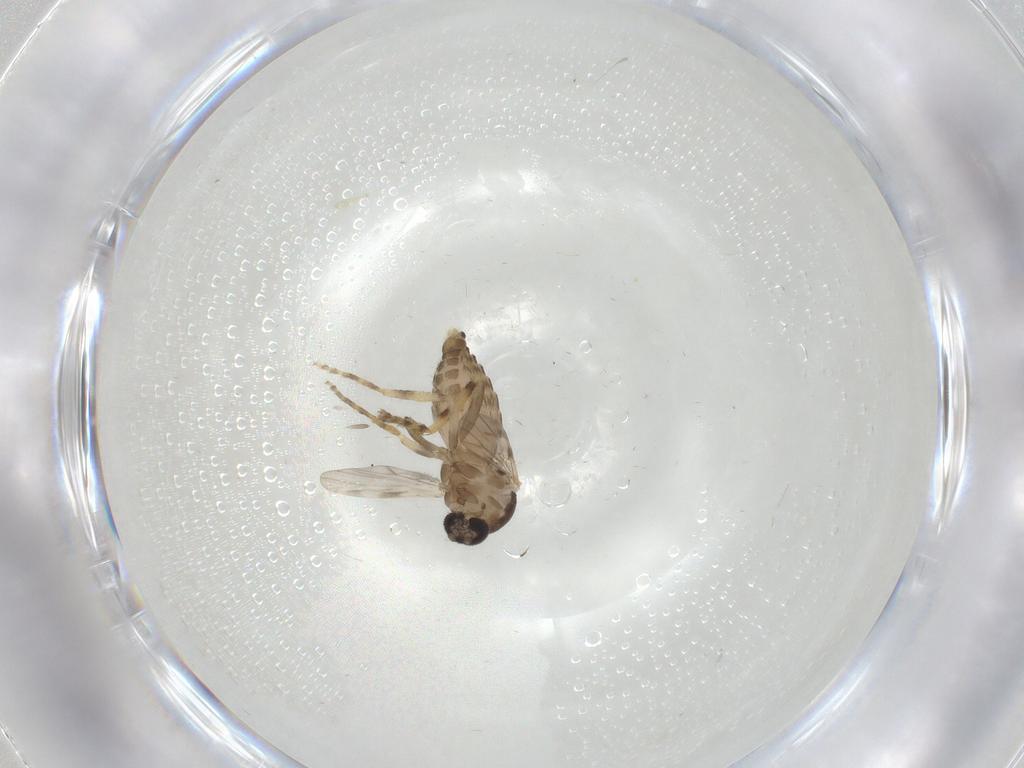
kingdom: Animalia
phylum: Arthropoda
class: Insecta
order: Diptera
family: Ceratopogonidae
